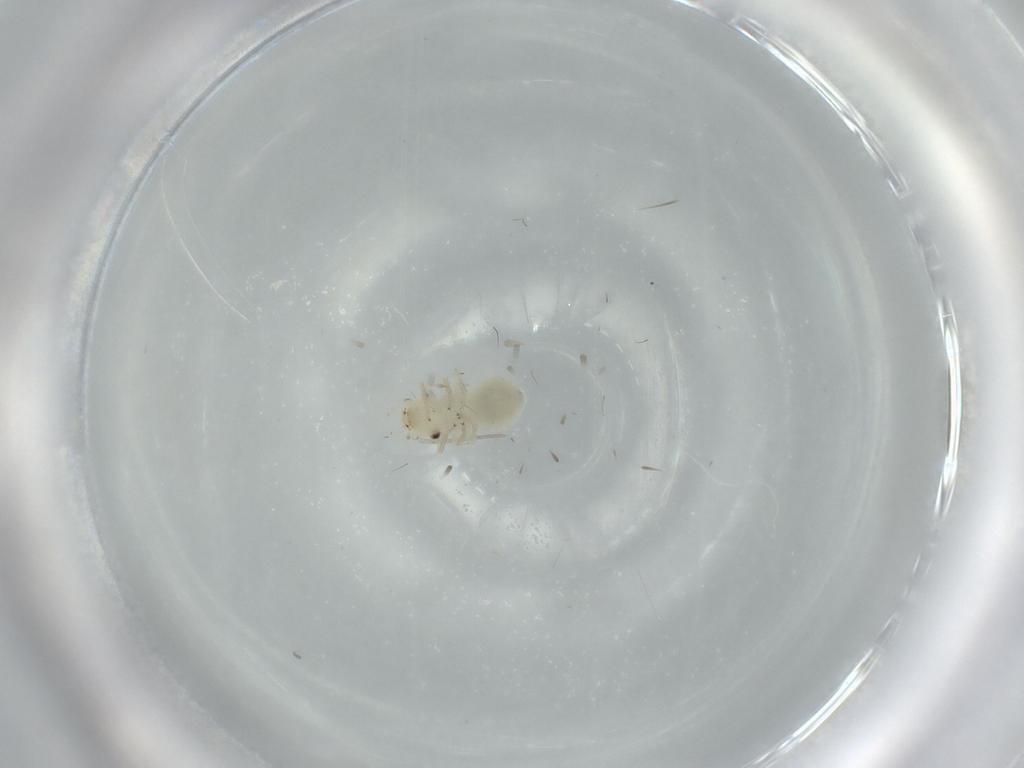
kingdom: Animalia
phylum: Arthropoda
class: Insecta
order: Psocodea
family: Caeciliusidae
